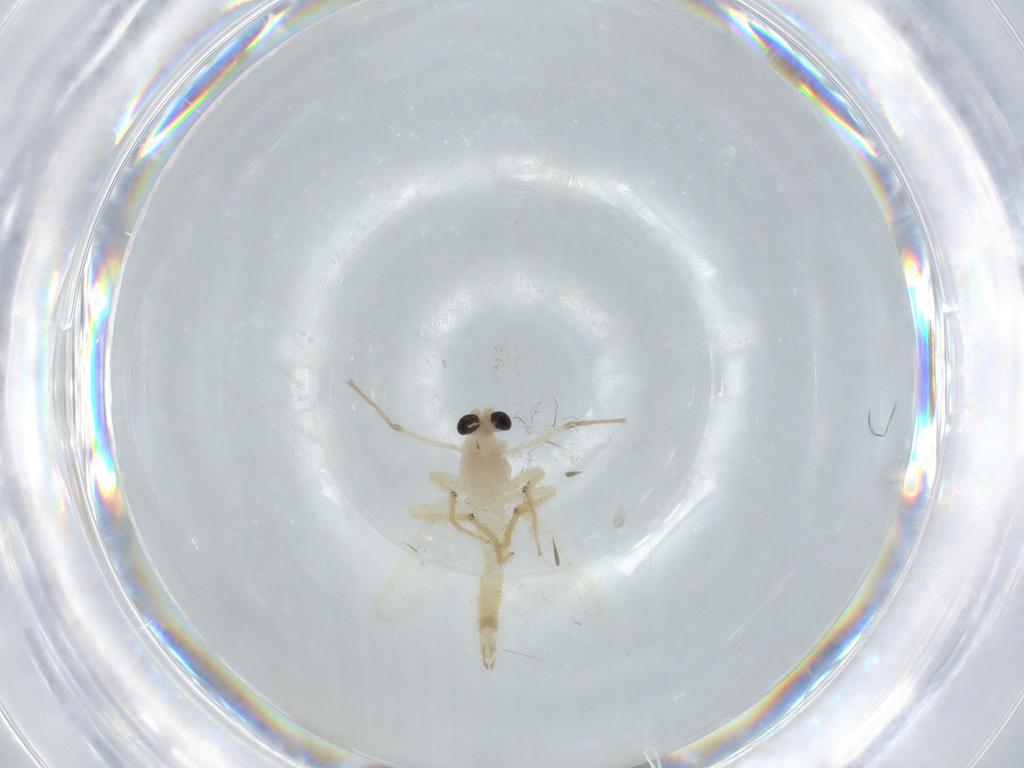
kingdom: Animalia
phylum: Arthropoda
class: Insecta
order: Diptera
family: Chironomidae
